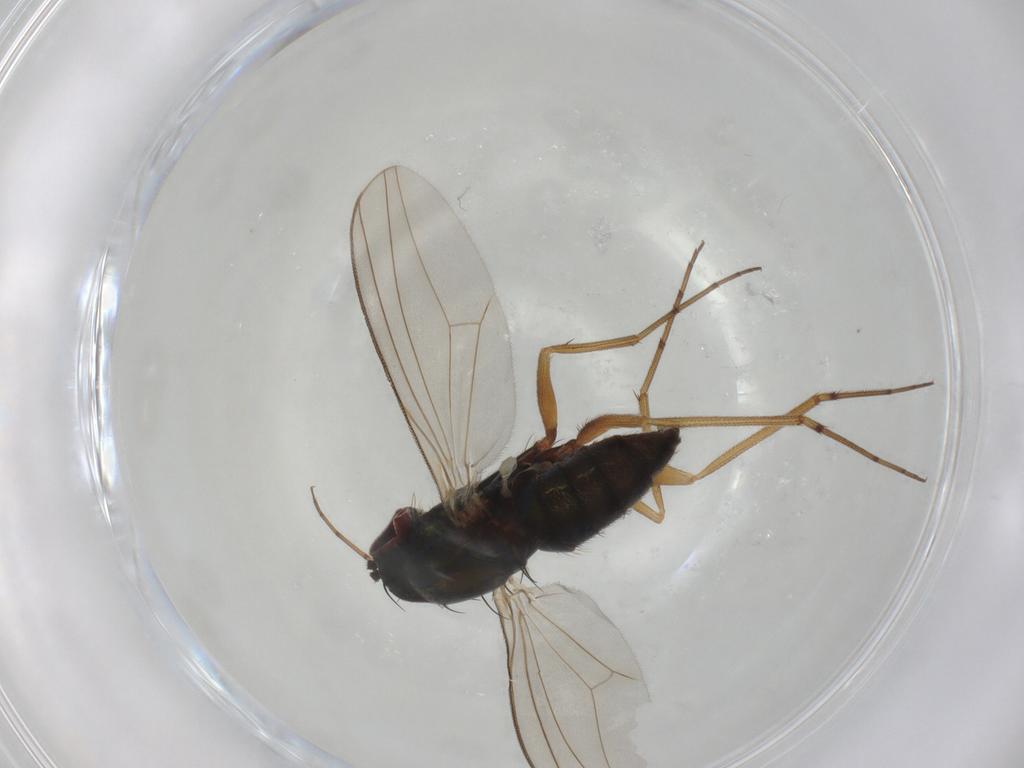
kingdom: Animalia
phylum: Arthropoda
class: Insecta
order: Diptera
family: Dolichopodidae
